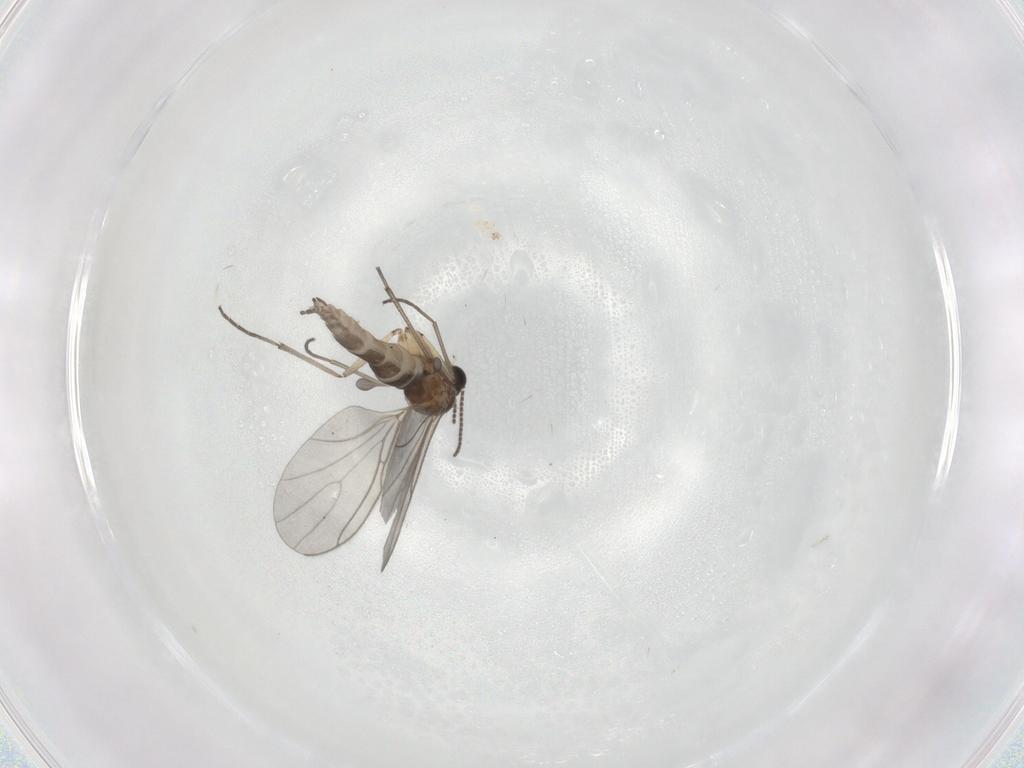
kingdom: Animalia
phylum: Arthropoda
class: Insecta
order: Diptera
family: Sciaridae
